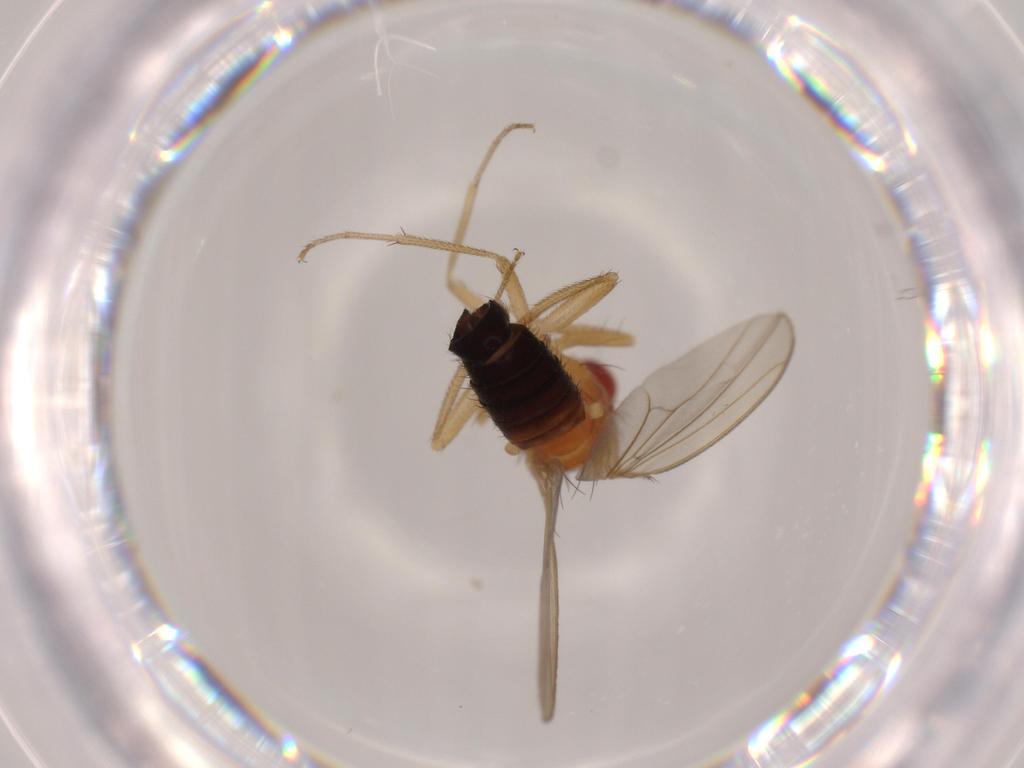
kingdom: Animalia
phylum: Arthropoda
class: Insecta
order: Diptera
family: Drosophilidae
